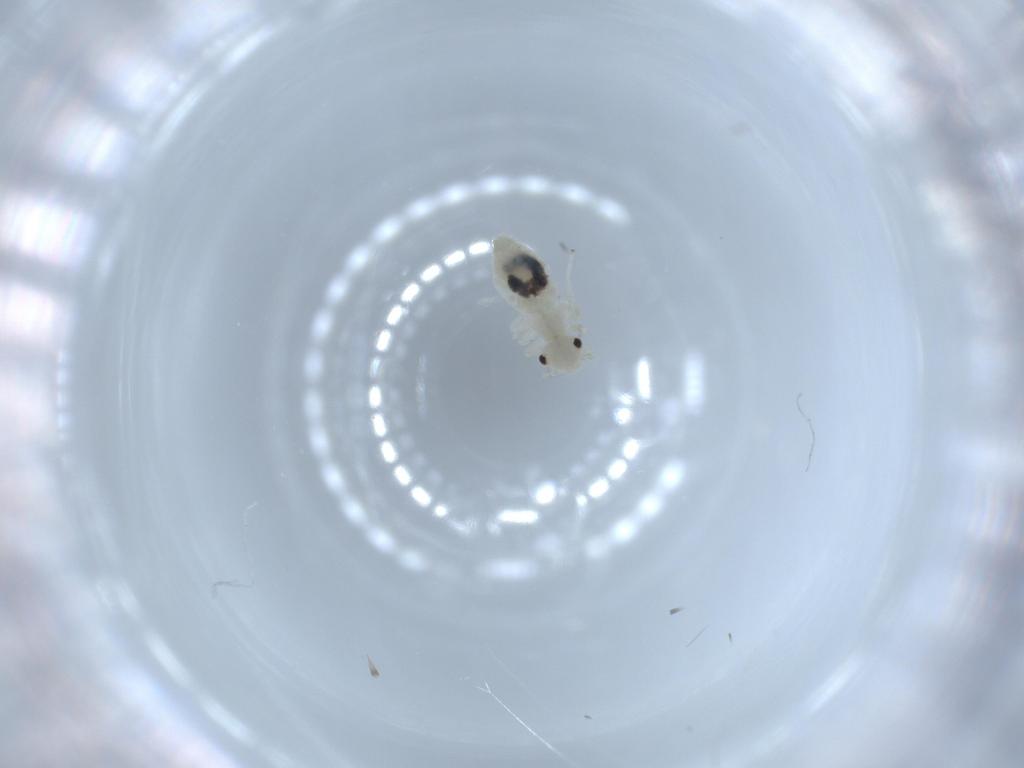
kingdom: Animalia
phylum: Arthropoda
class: Insecta
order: Psocodea
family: Caeciliusidae
